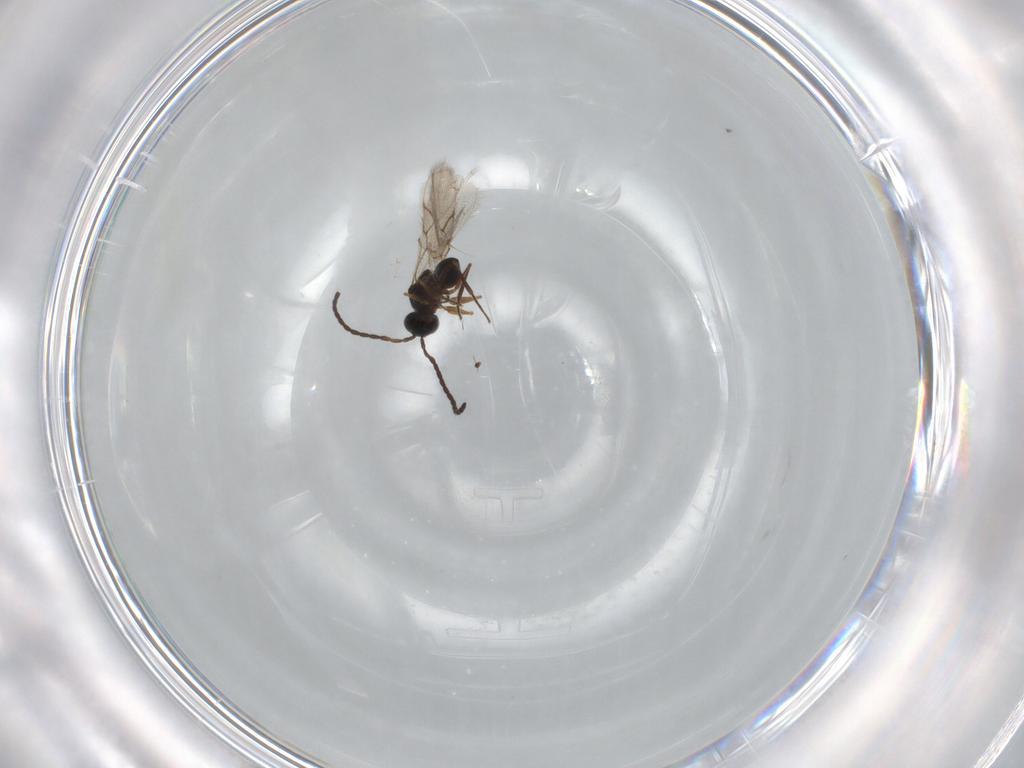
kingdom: Animalia
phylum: Arthropoda
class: Insecta
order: Hymenoptera
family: Figitidae
